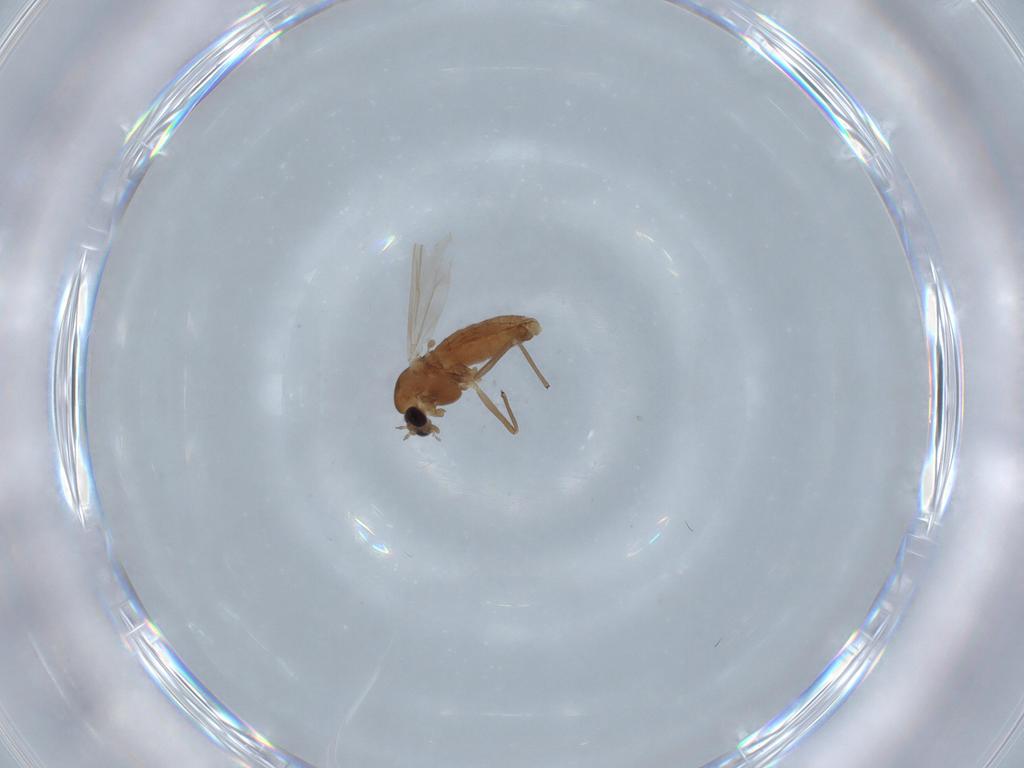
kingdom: Animalia
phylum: Arthropoda
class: Insecta
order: Diptera
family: Chironomidae
